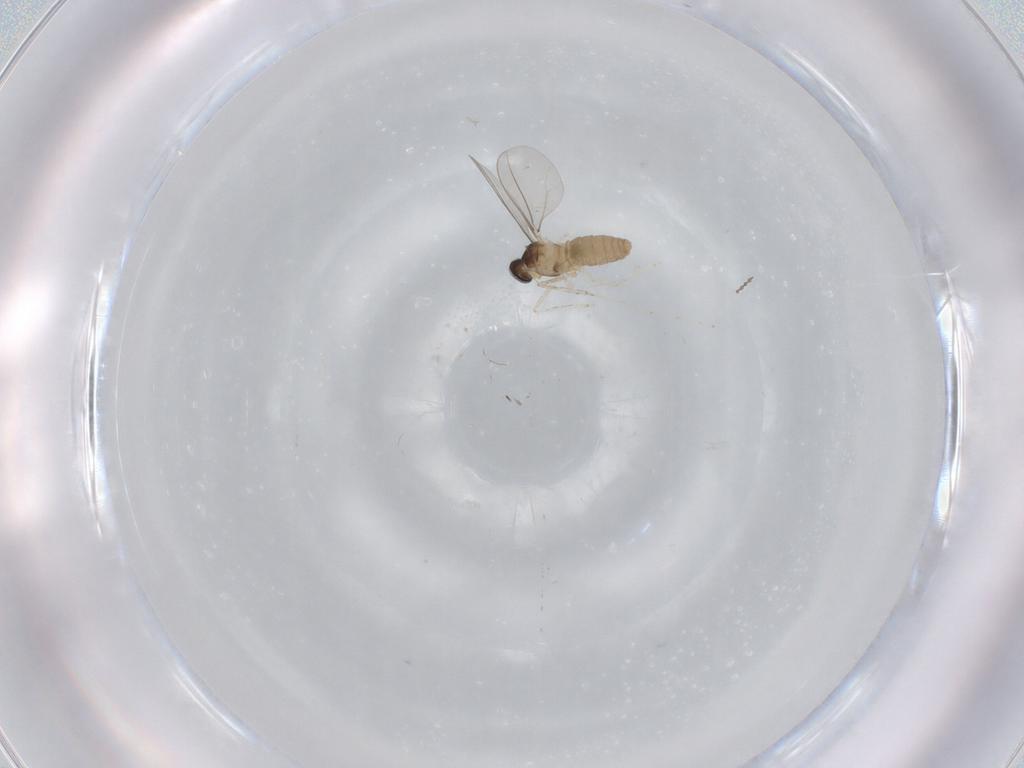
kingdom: Animalia
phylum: Arthropoda
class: Insecta
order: Diptera
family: Cecidomyiidae
